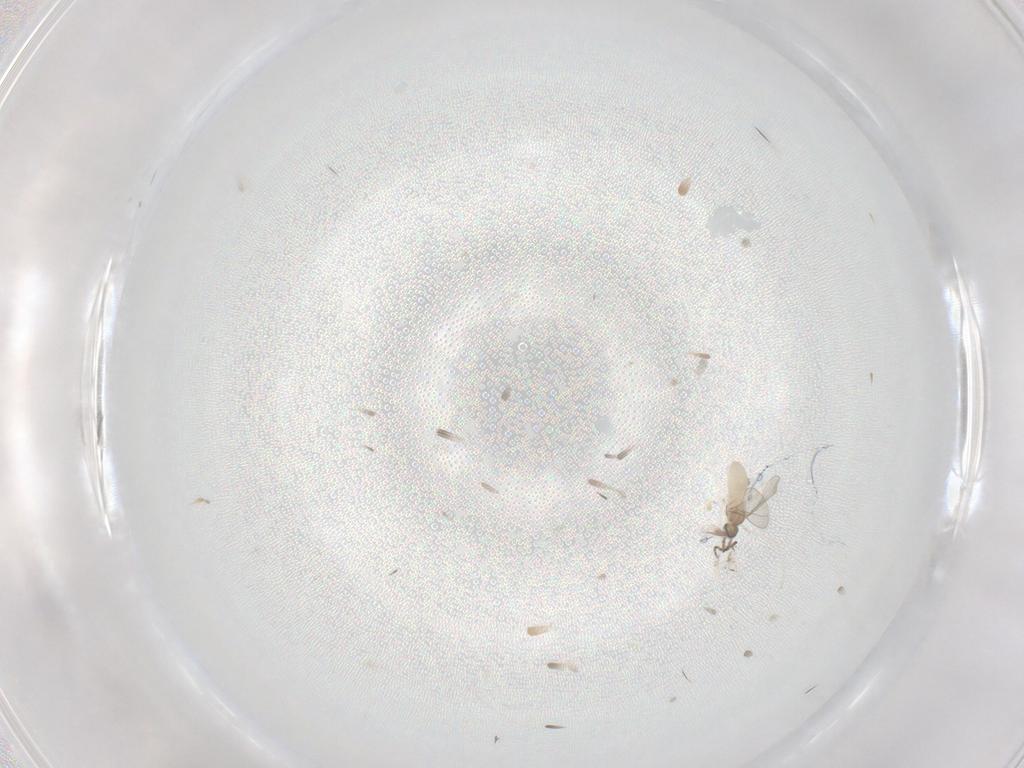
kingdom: Animalia
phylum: Arthropoda
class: Insecta
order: Diptera
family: Cecidomyiidae
